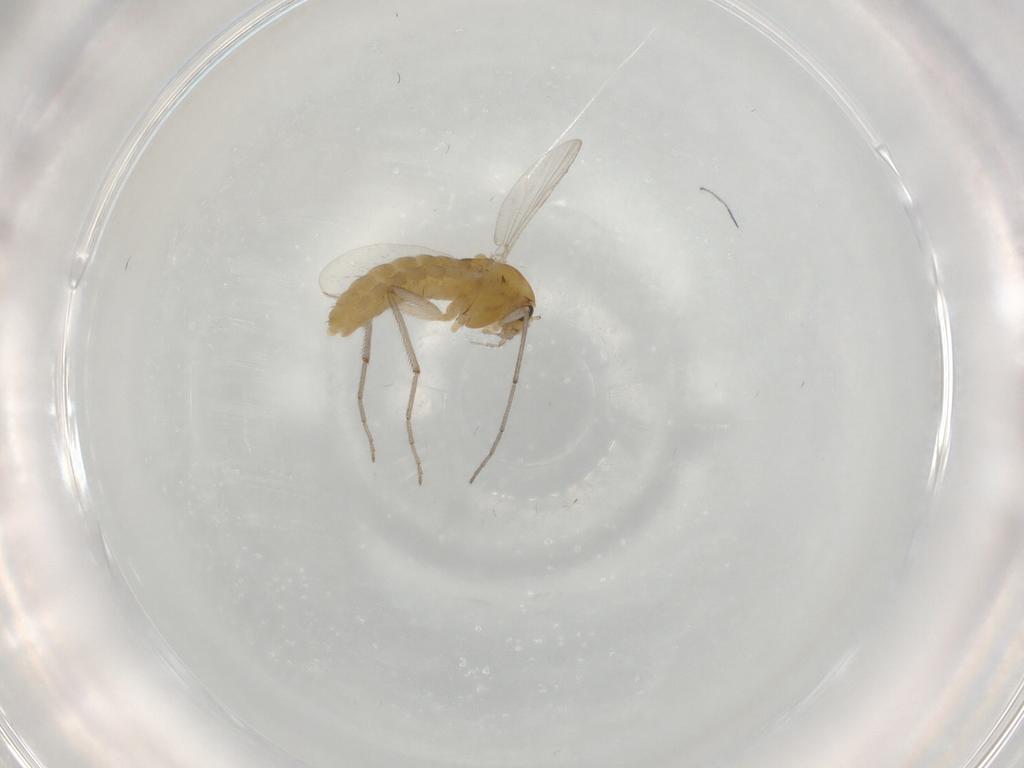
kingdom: Animalia
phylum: Arthropoda
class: Insecta
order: Diptera
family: Chironomidae
